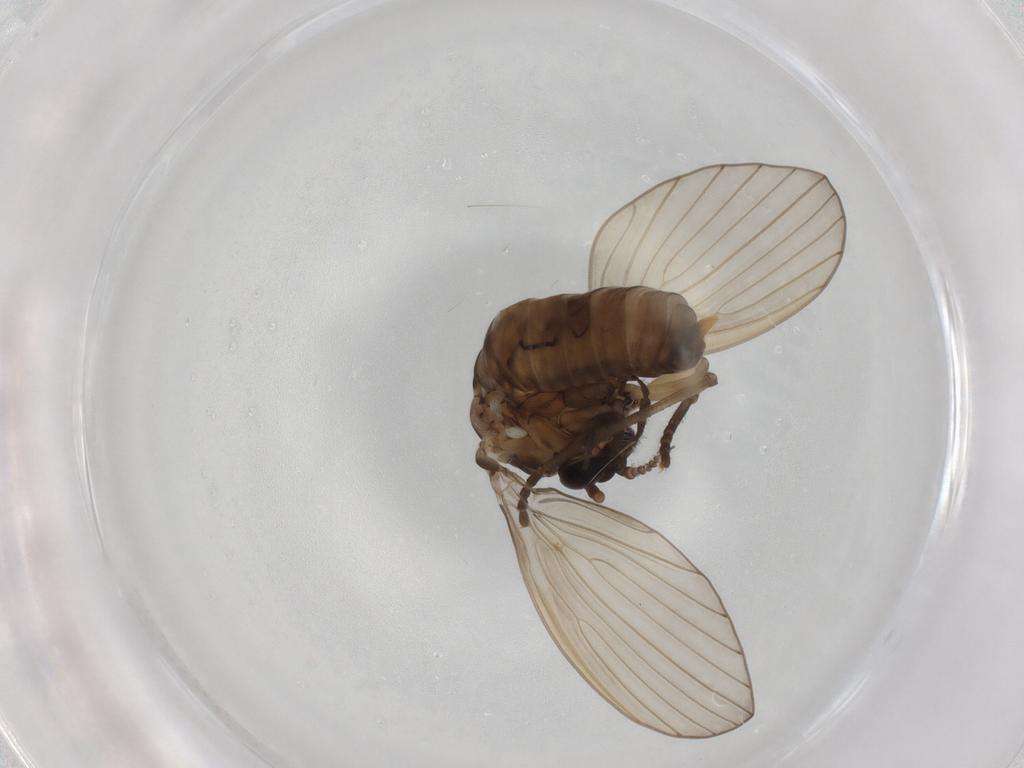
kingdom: Animalia
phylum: Arthropoda
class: Insecta
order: Diptera
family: Psychodidae
